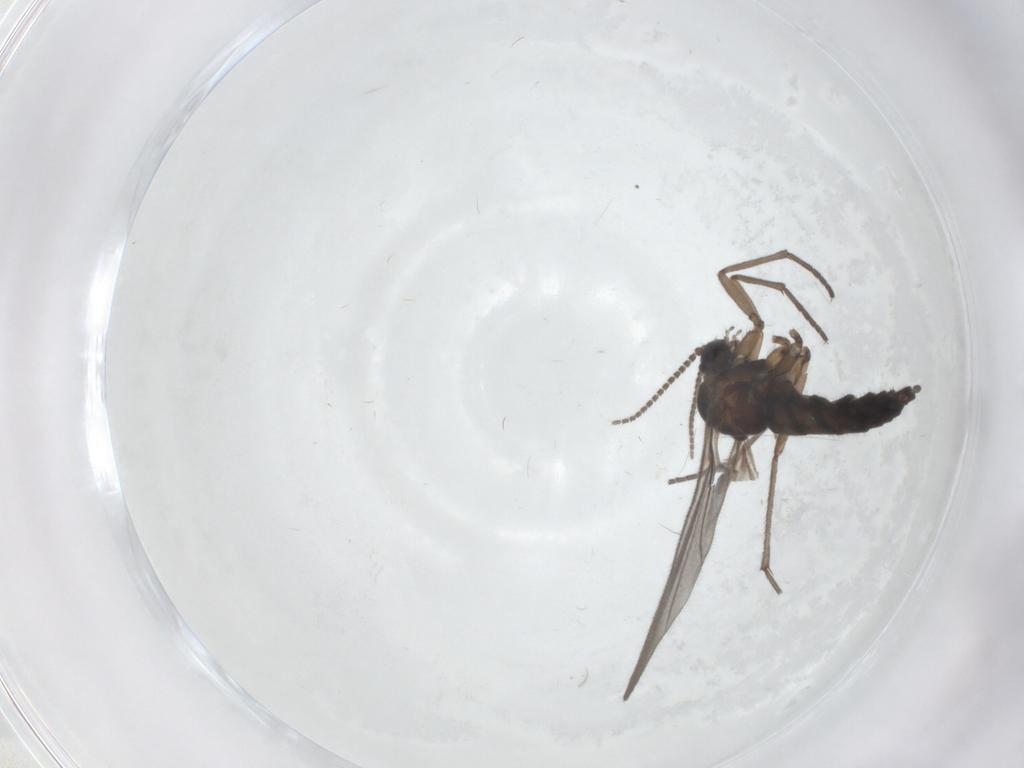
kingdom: Animalia
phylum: Arthropoda
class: Insecta
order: Diptera
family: Sciaridae
